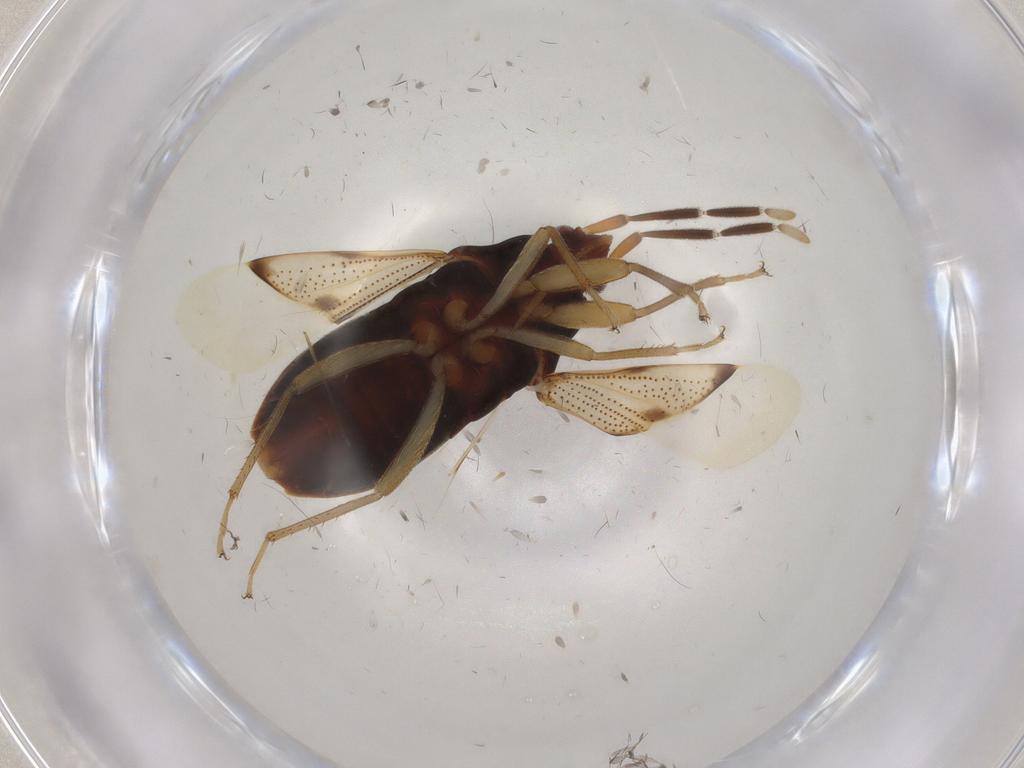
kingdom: Animalia
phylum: Arthropoda
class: Insecta
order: Hemiptera
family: Rhyparochromidae
